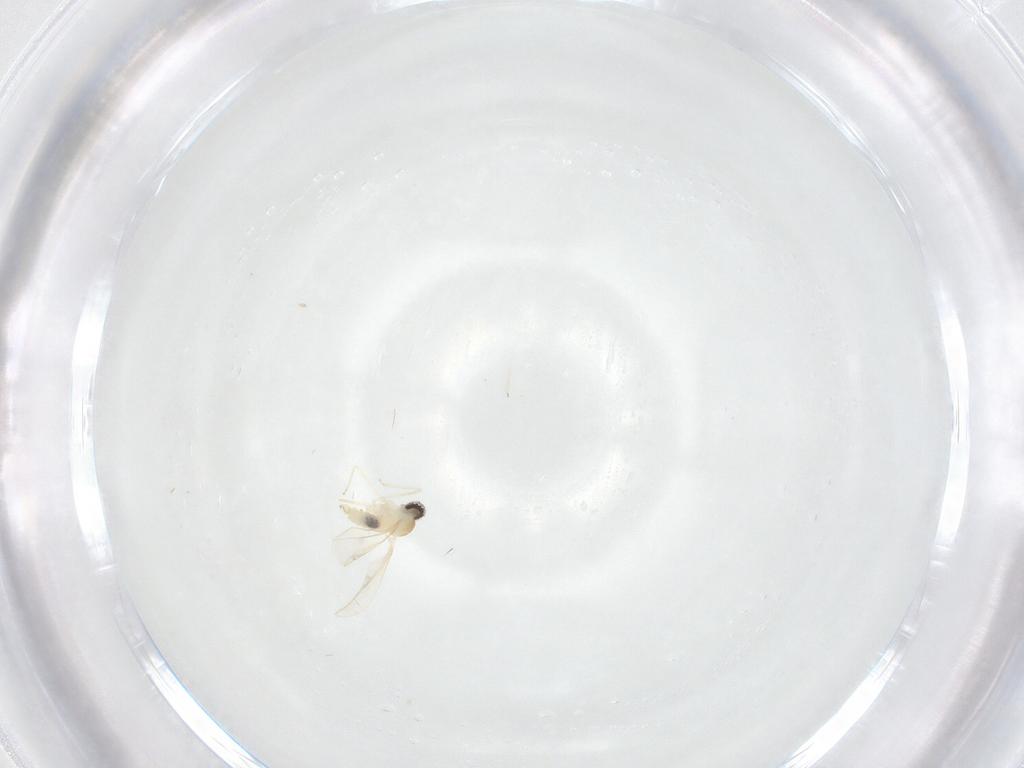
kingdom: Animalia
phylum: Arthropoda
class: Insecta
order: Diptera
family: Cecidomyiidae
